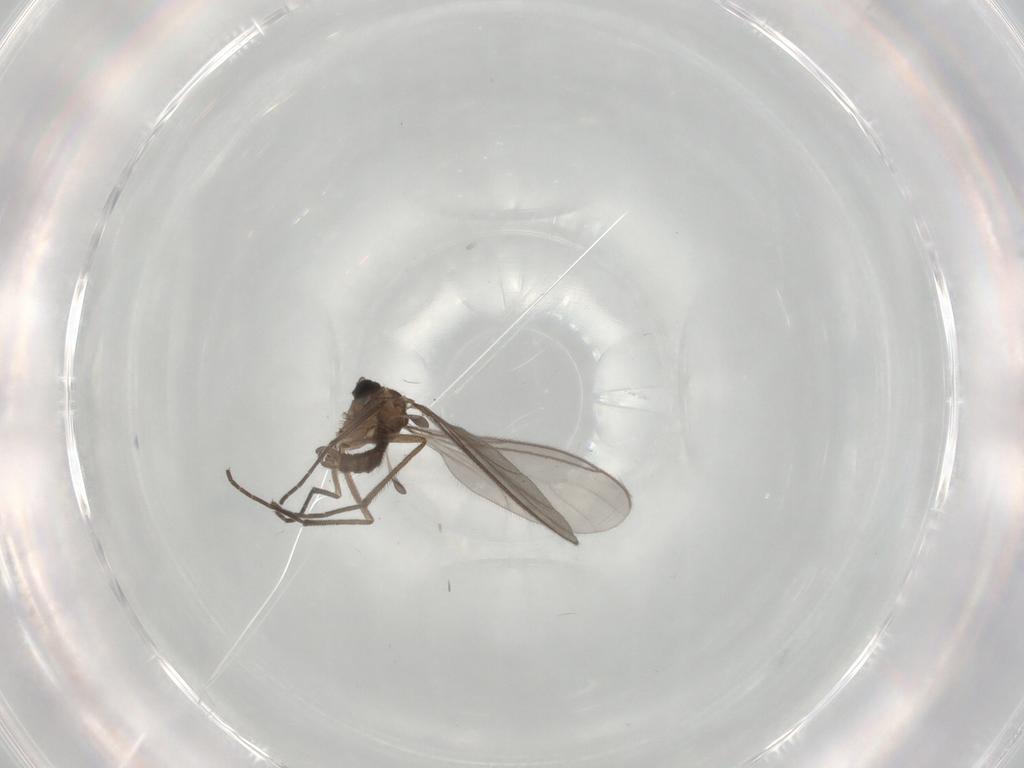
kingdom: Animalia
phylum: Arthropoda
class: Insecta
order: Diptera
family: Sciaridae
